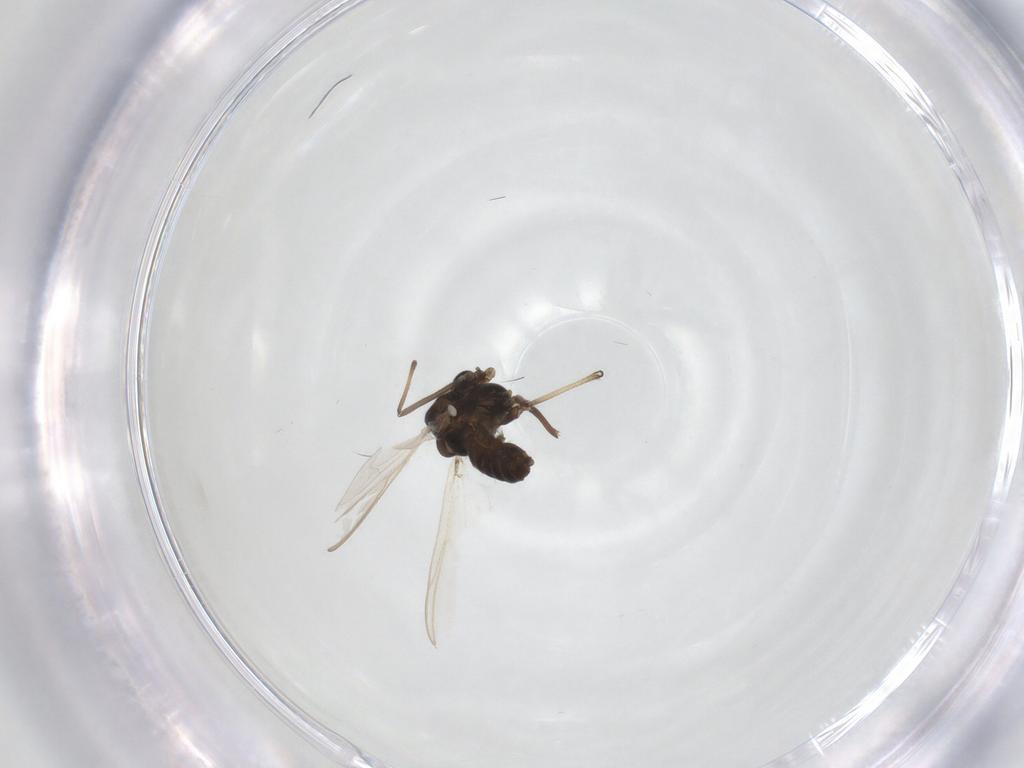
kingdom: Animalia
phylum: Arthropoda
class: Insecta
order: Diptera
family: Chironomidae
